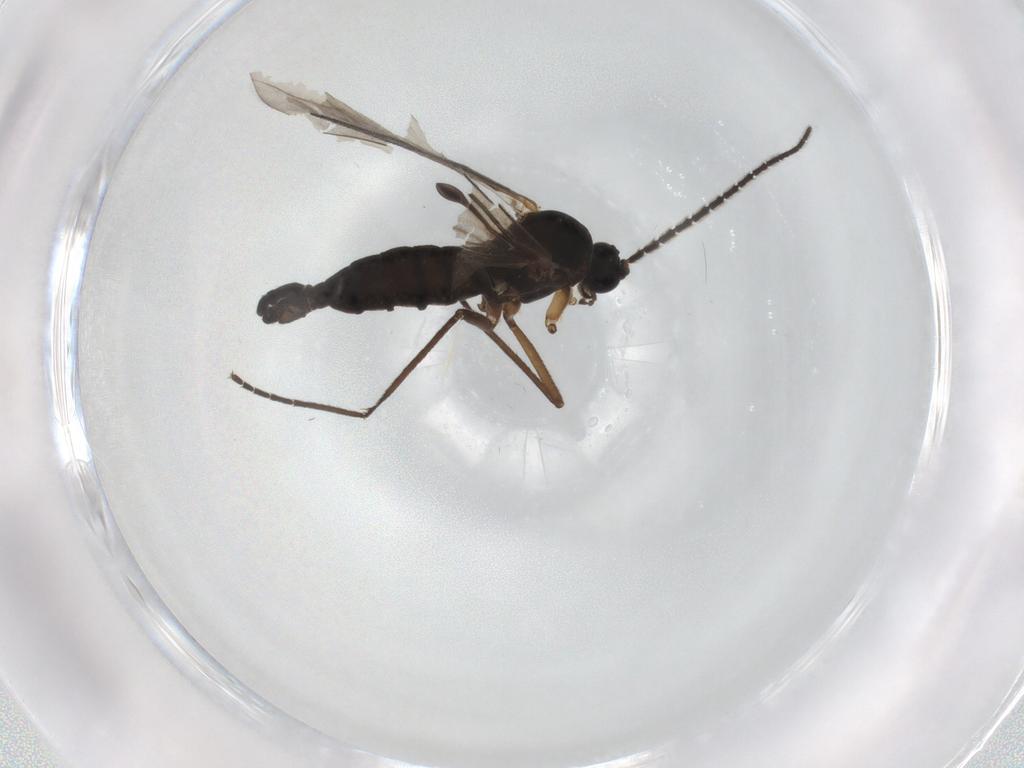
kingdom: Animalia
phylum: Arthropoda
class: Insecta
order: Diptera
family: Sciaridae
